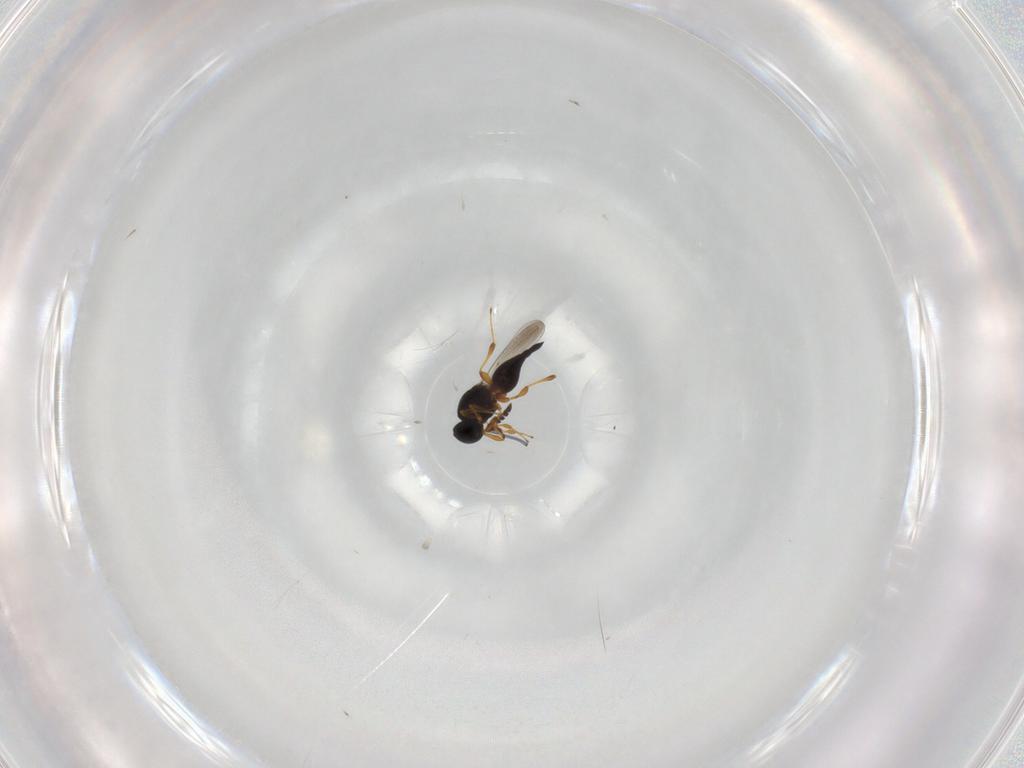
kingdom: Animalia
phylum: Arthropoda
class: Insecta
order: Hymenoptera
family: Platygastridae
